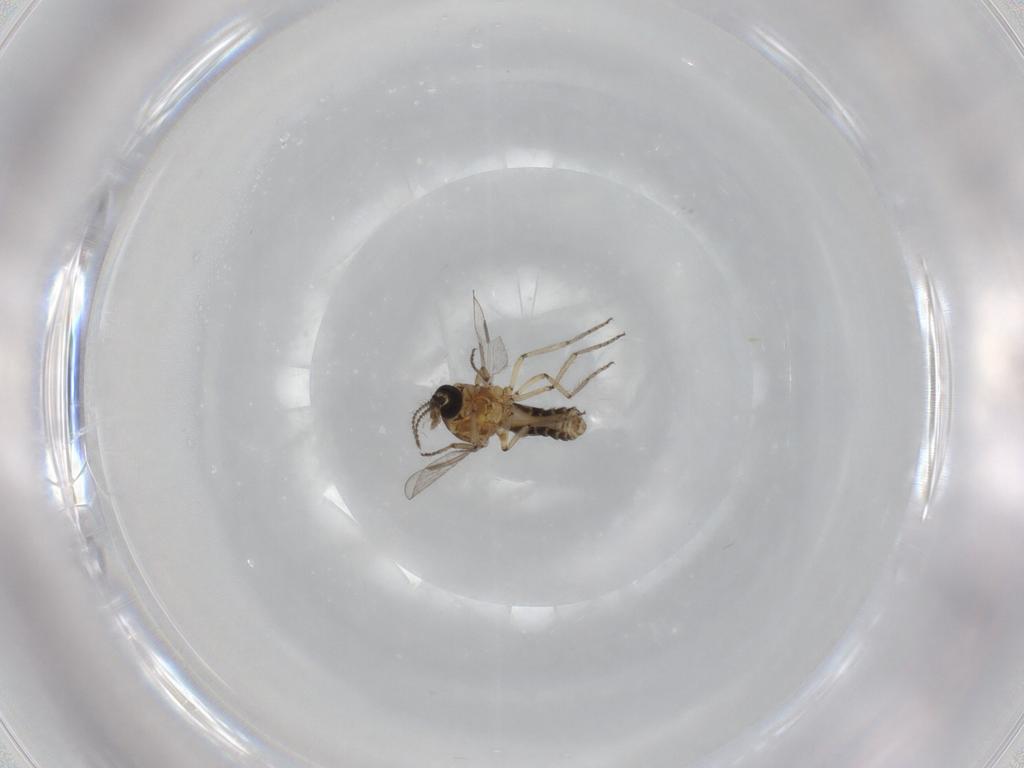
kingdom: Animalia
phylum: Arthropoda
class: Insecta
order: Diptera
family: Ceratopogonidae
